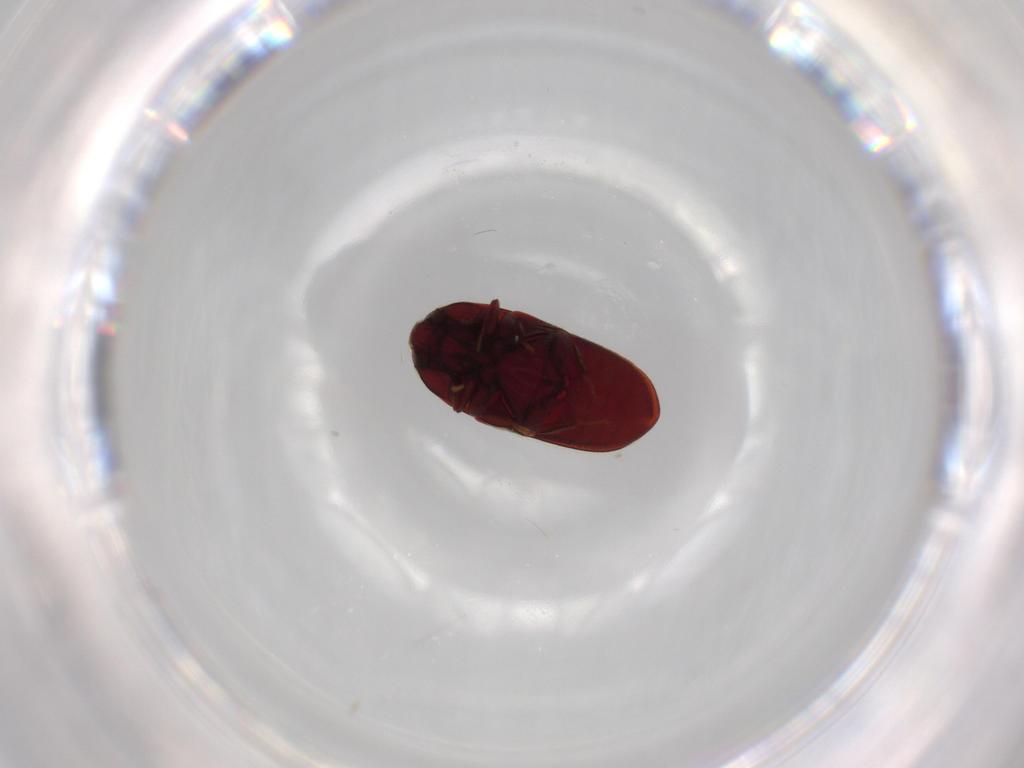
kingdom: Animalia
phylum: Arthropoda
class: Insecta
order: Coleoptera
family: Throscidae
